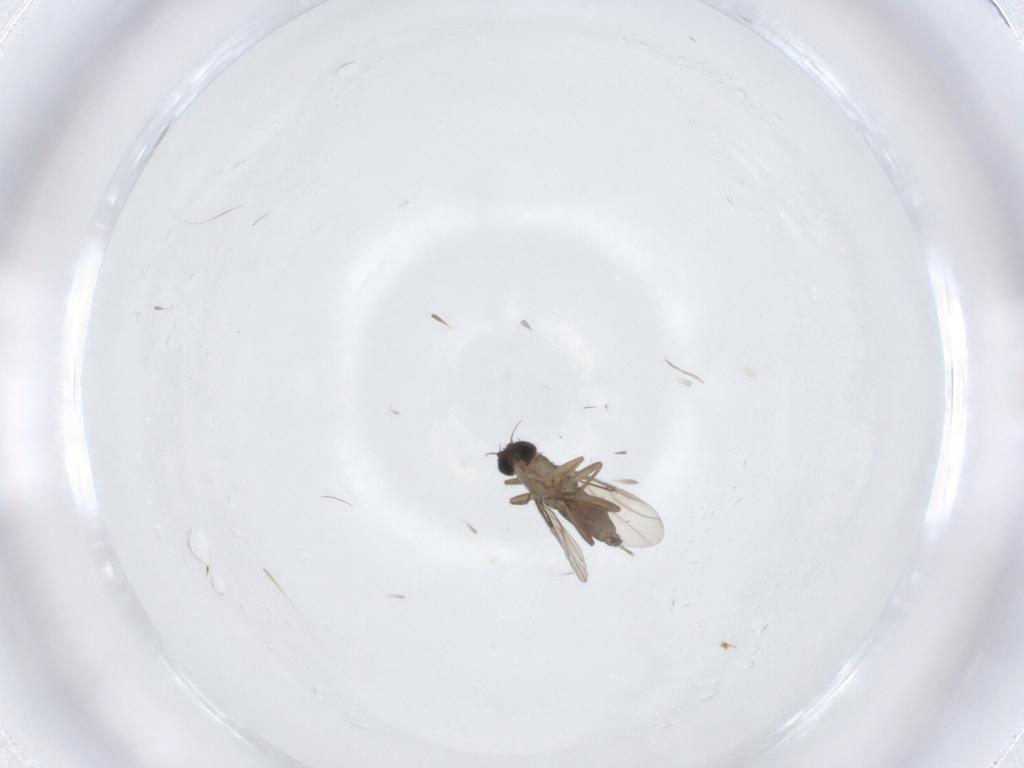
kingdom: Animalia
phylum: Arthropoda
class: Insecta
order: Diptera
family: Phoridae
